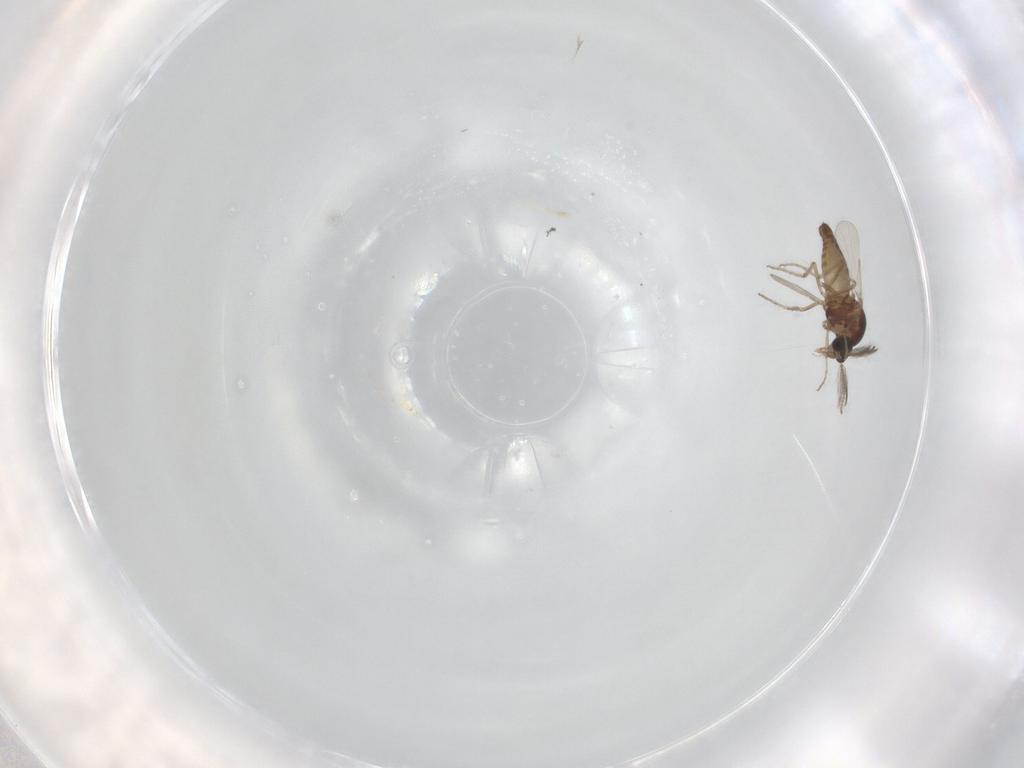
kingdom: Animalia
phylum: Arthropoda
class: Insecta
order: Diptera
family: Ceratopogonidae
